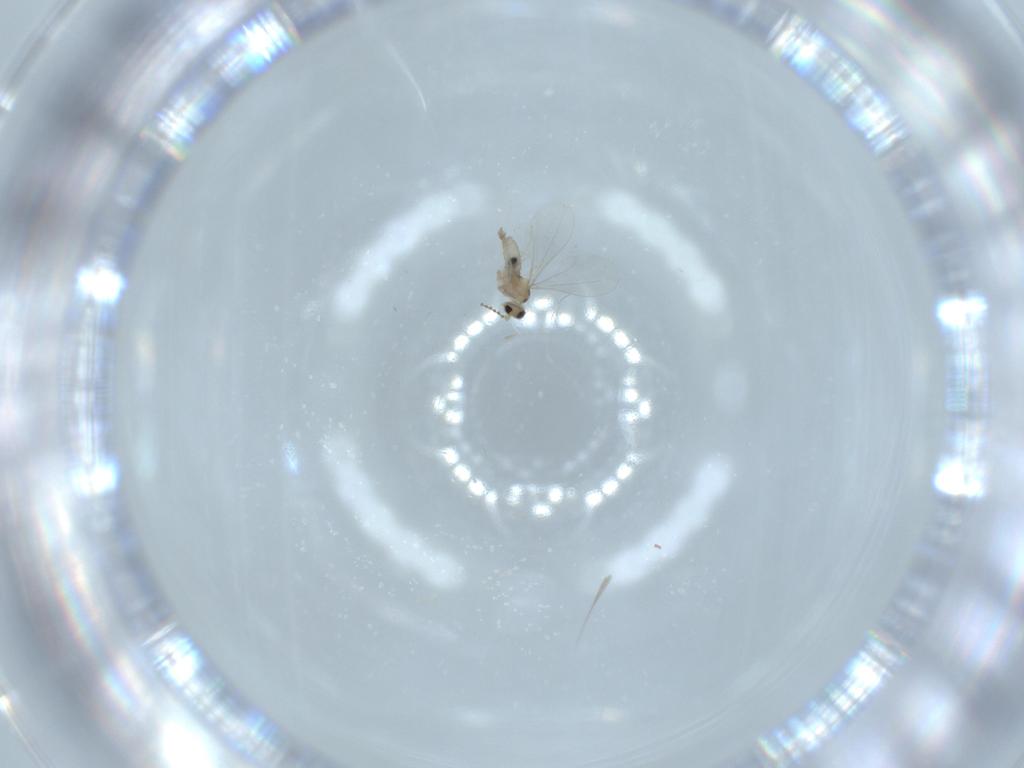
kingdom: Animalia
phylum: Arthropoda
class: Insecta
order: Diptera
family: Cecidomyiidae
